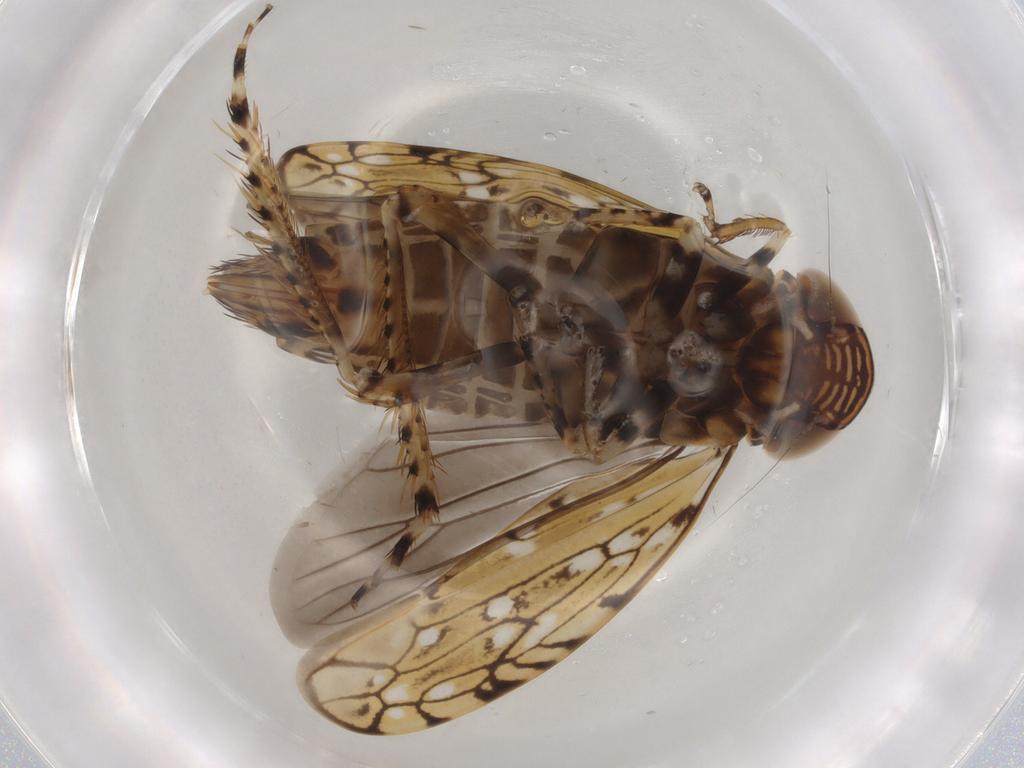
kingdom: Animalia
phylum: Arthropoda
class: Insecta
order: Hemiptera
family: Cicadellidae
